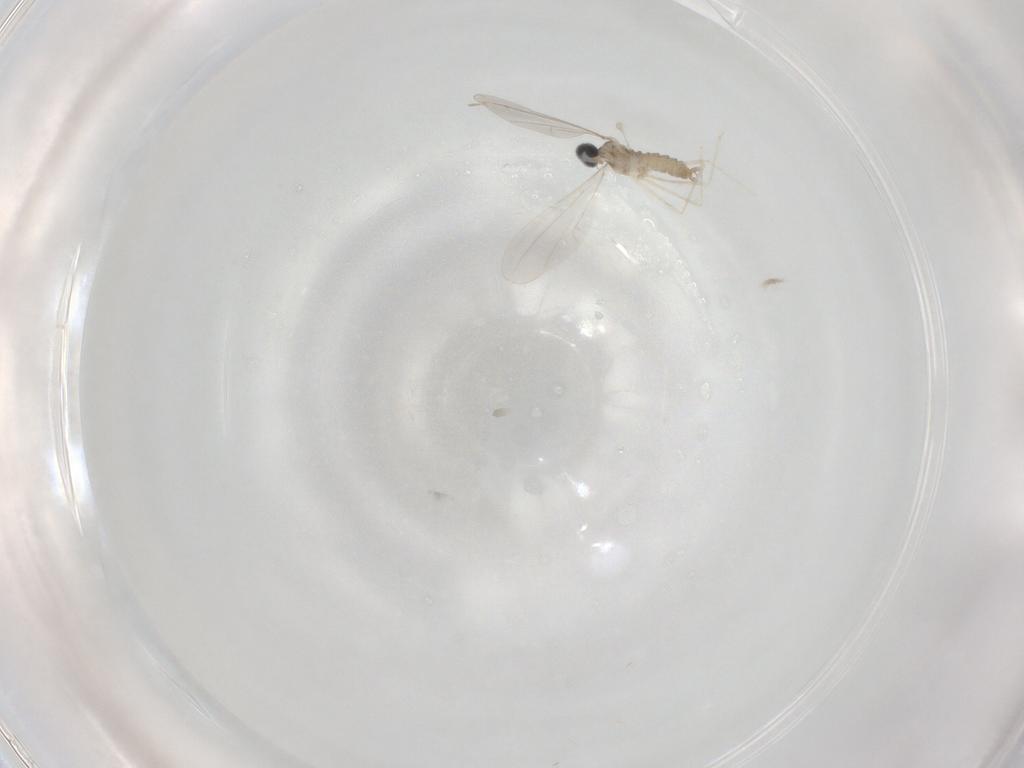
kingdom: Animalia
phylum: Arthropoda
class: Insecta
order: Diptera
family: Cecidomyiidae
